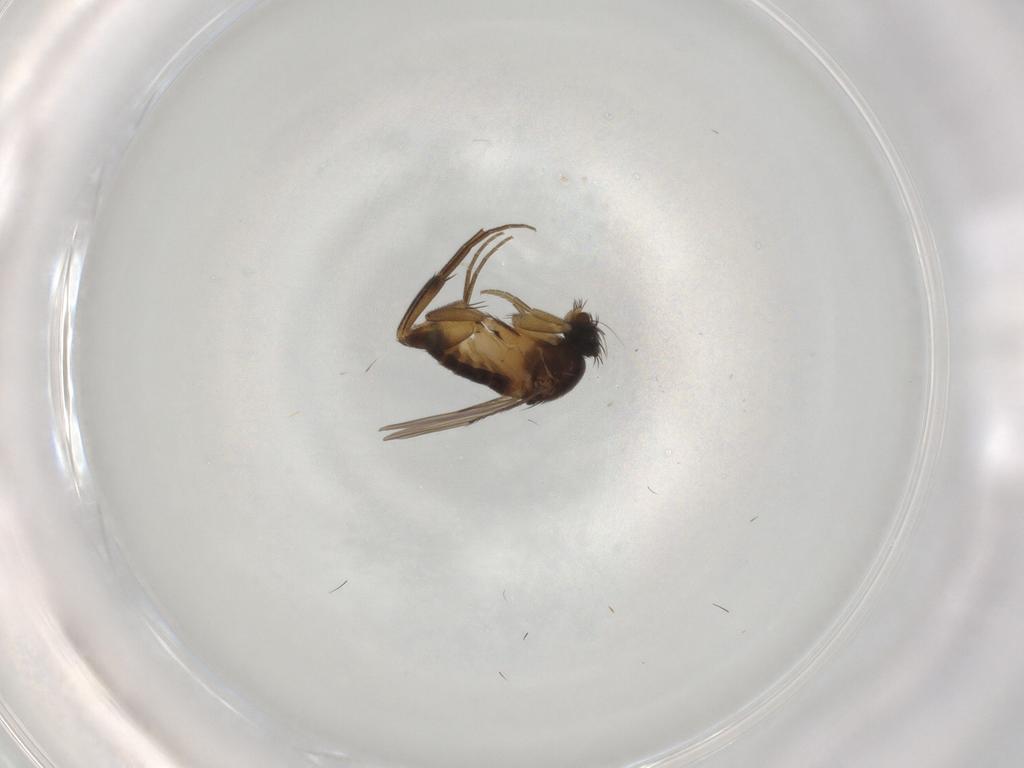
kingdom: Animalia
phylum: Arthropoda
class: Insecta
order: Diptera
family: Phoridae
